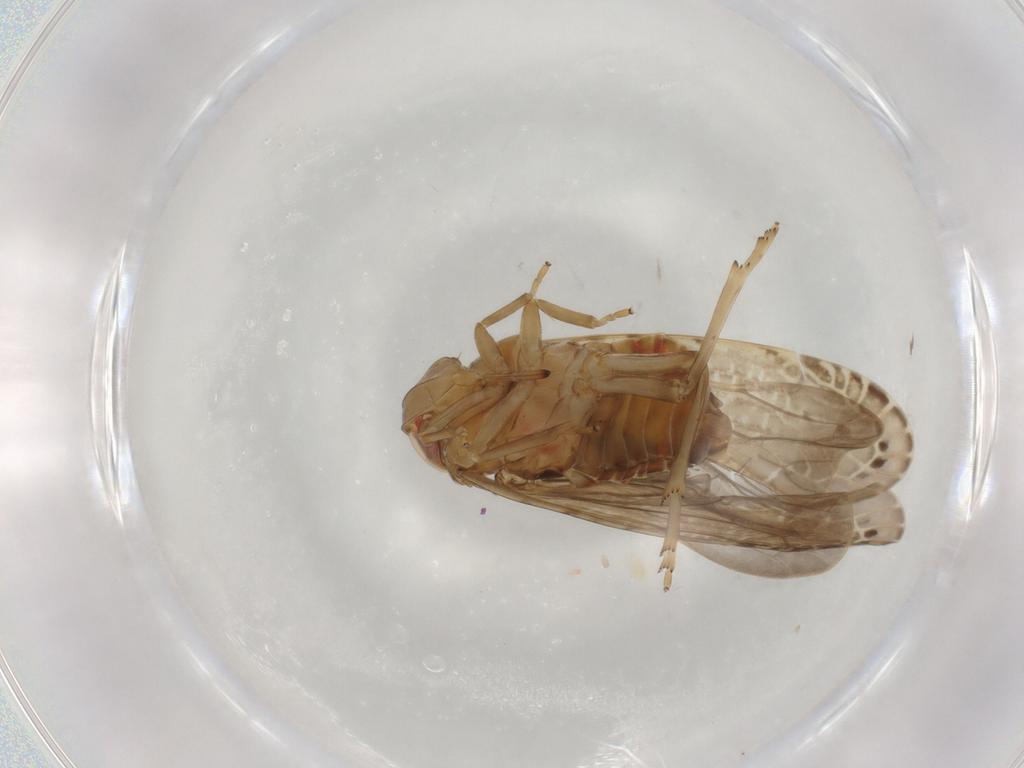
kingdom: Animalia
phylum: Arthropoda
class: Insecta
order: Hemiptera
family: Rhyparochromidae
